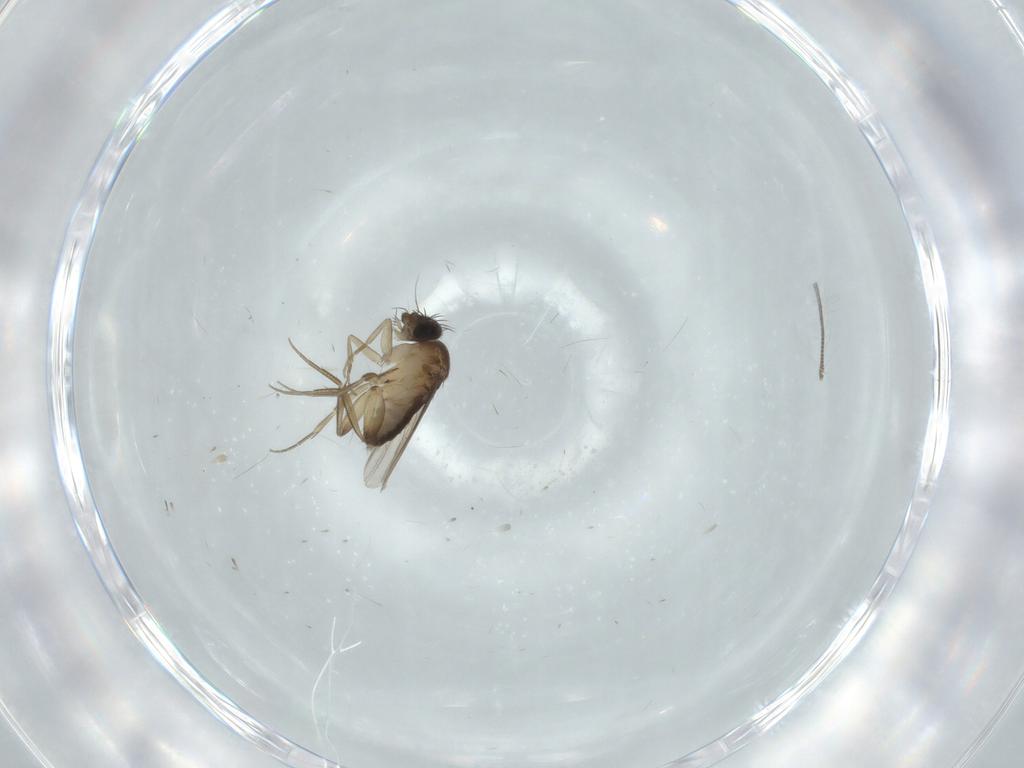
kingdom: Animalia
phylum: Arthropoda
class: Insecta
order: Diptera
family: Phoridae
